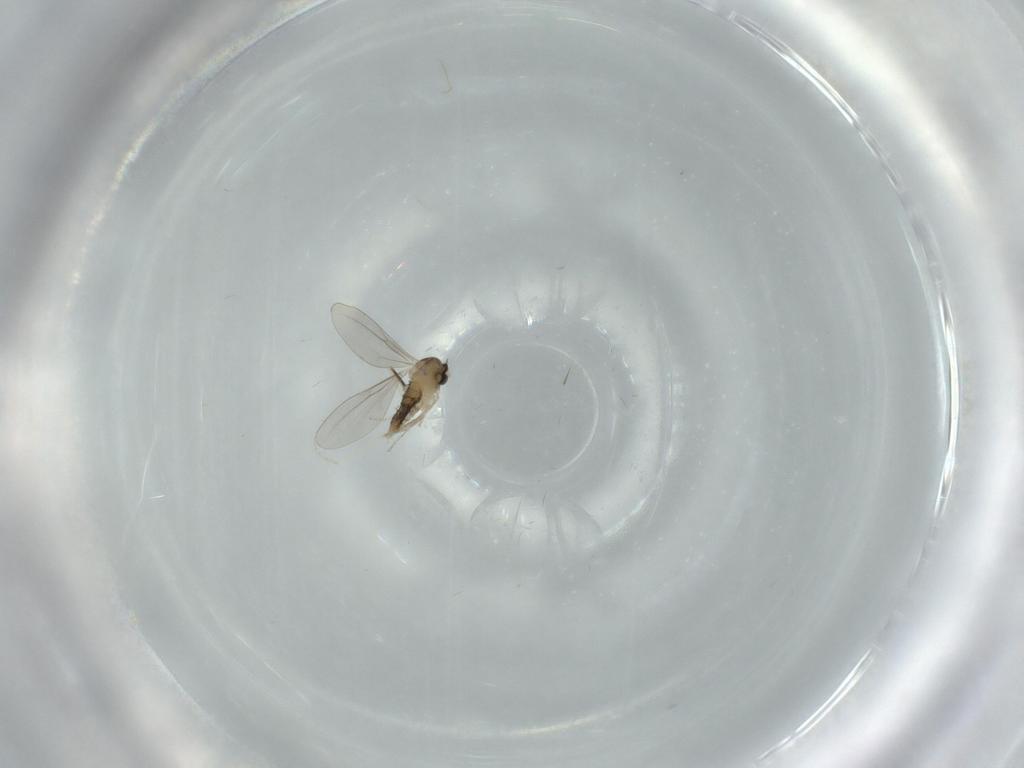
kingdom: Animalia
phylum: Arthropoda
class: Insecta
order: Diptera
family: Cecidomyiidae
